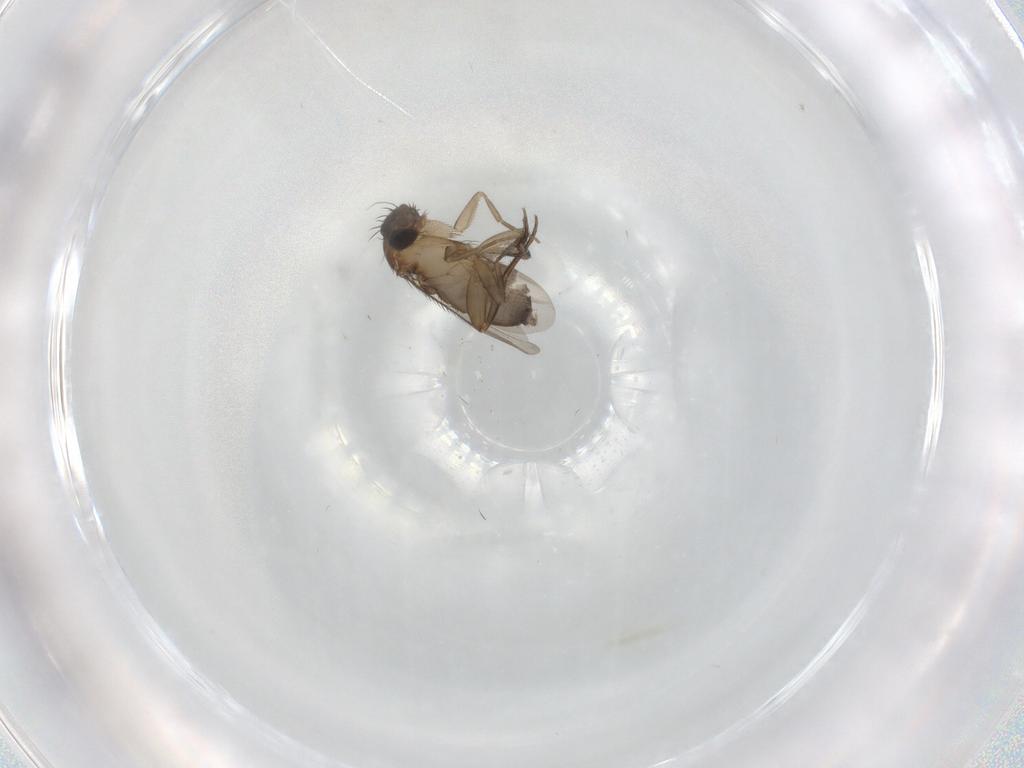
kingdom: Animalia
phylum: Arthropoda
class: Insecta
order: Diptera
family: Phoridae
